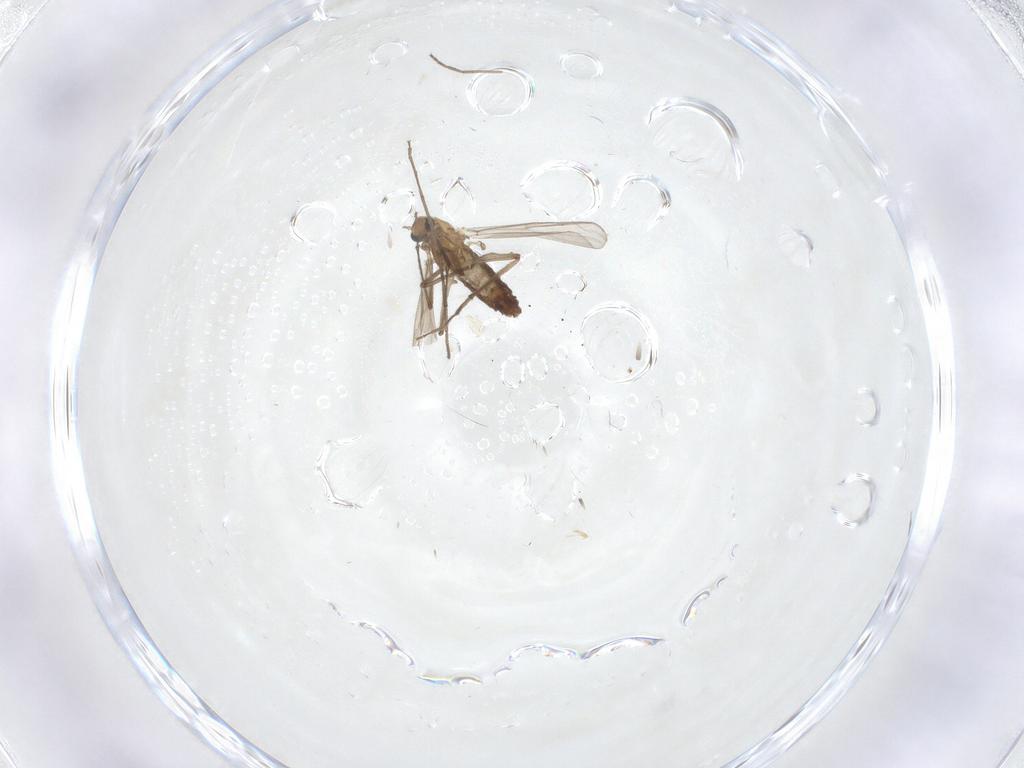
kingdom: Animalia
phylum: Arthropoda
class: Insecta
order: Diptera
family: Chironomidae
